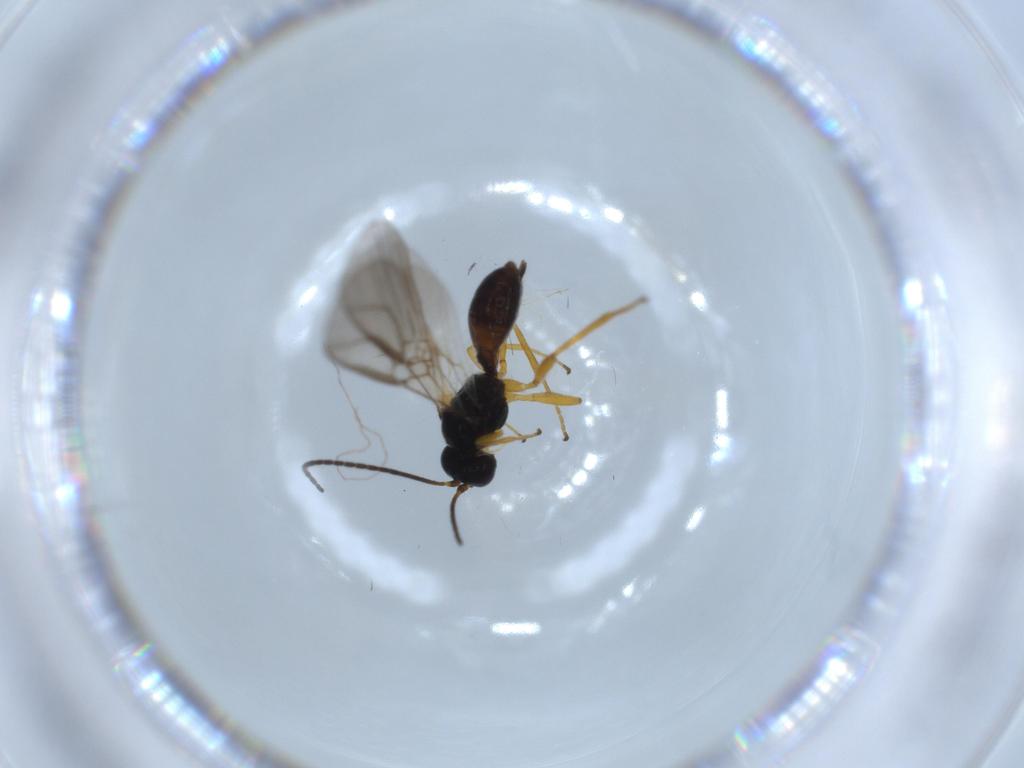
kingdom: Animalia
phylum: Arthropoda
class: Insecta
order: Hymenoptera
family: Braconidae
